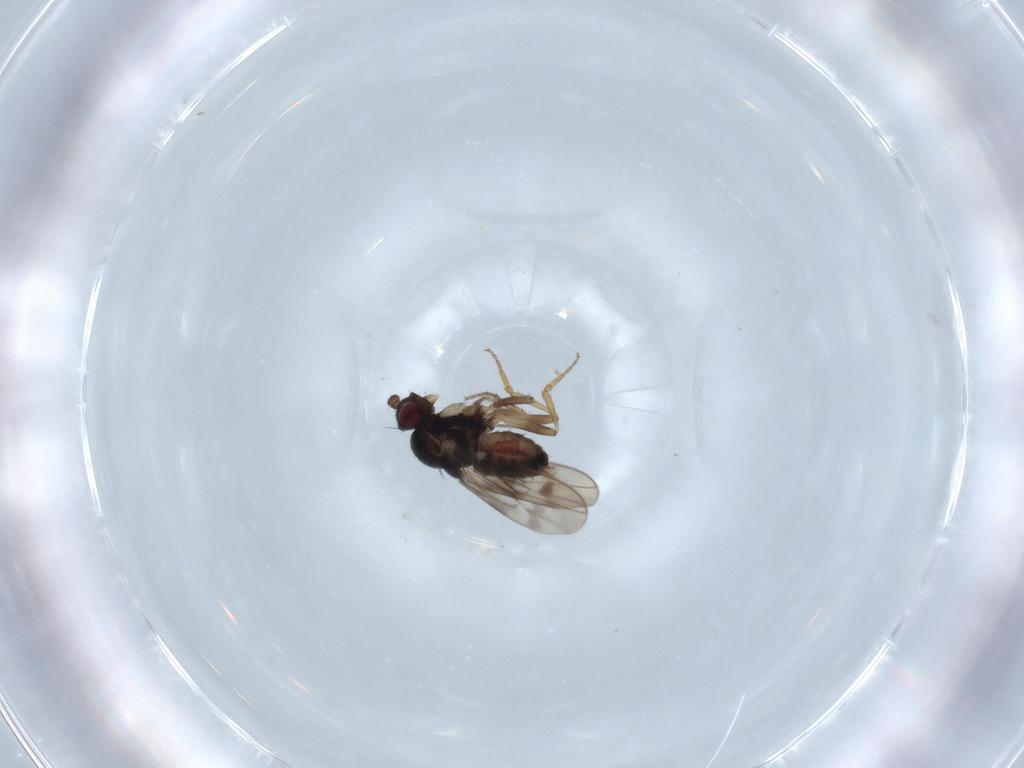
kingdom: Animalia
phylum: Arthropoda
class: Insecta
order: Diptera
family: Sphaeroceridae
